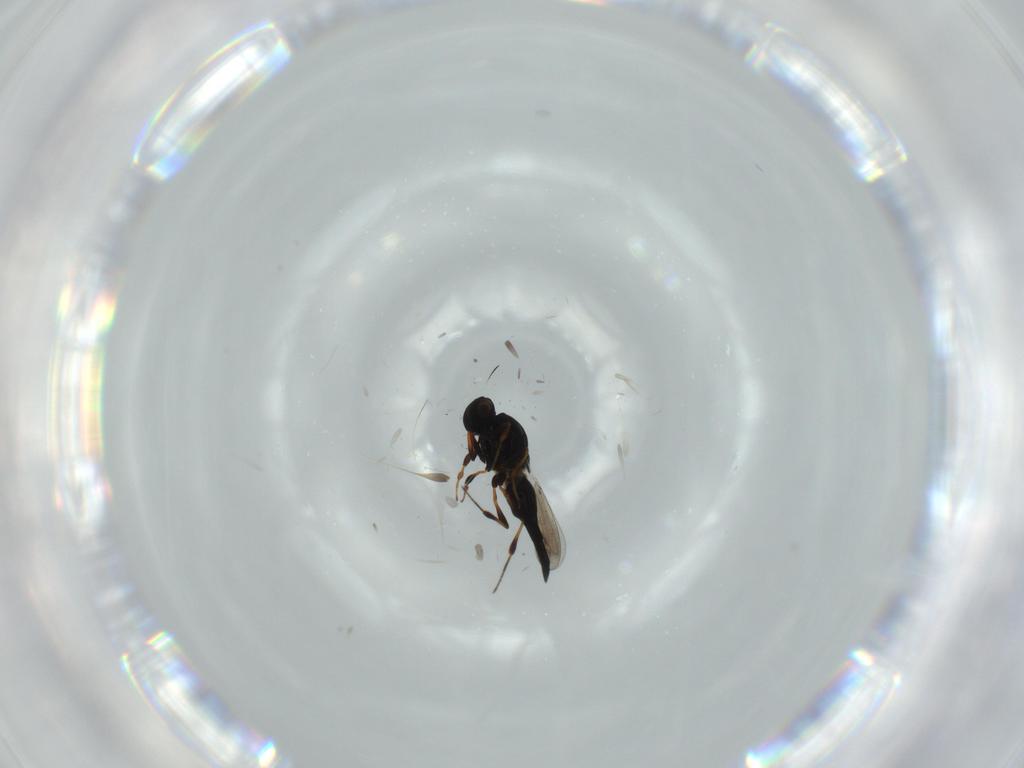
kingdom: Animalia
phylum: Arthropoda
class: Insecta
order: Hymenoptera
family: Platygastridae
